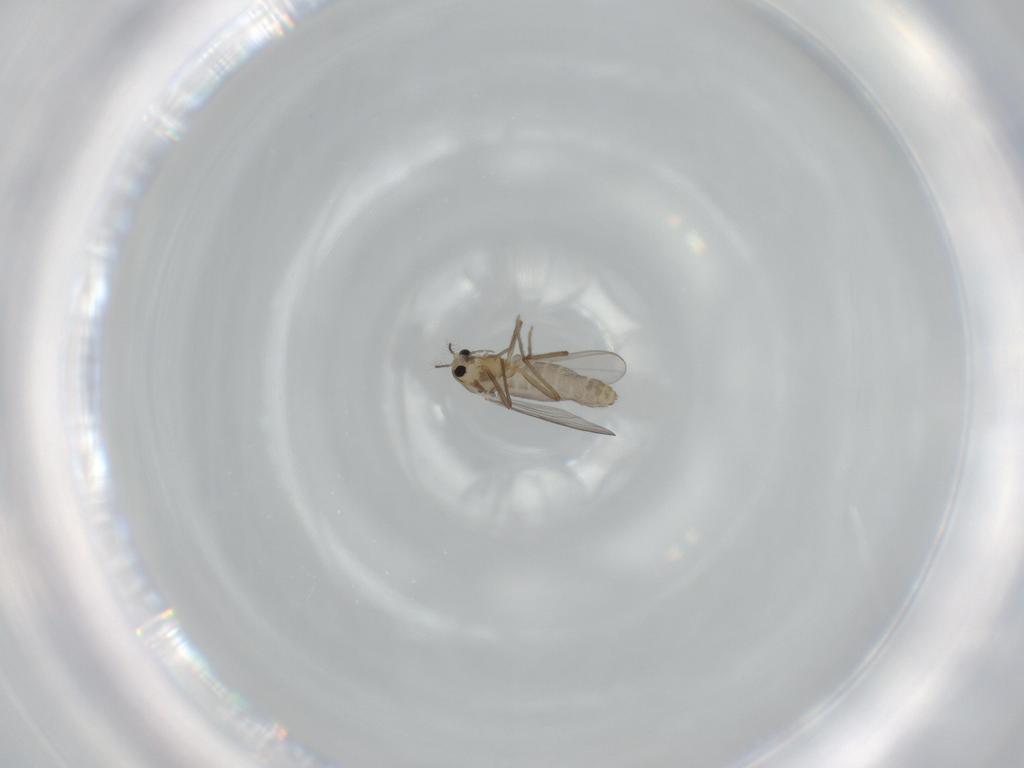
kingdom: Animalia
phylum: Arthropoda
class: Insecta
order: Diptera
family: Chironomidae
